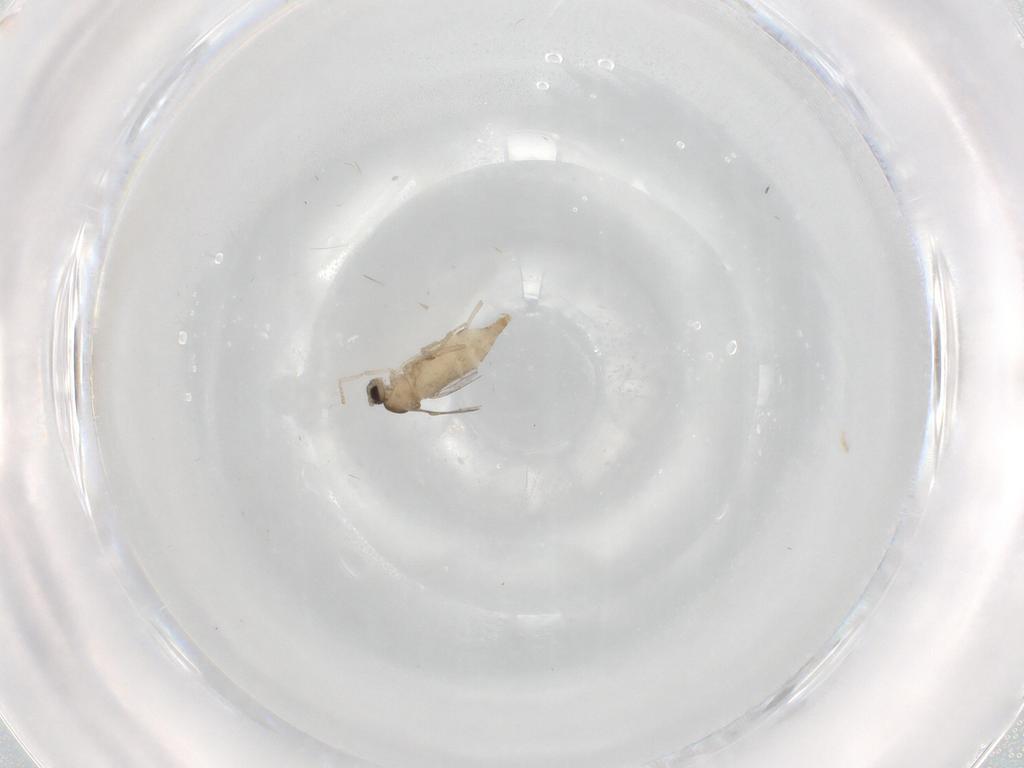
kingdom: Animalia
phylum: Arthropoda
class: Insecta
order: Diptera
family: Cecidomyiidae
